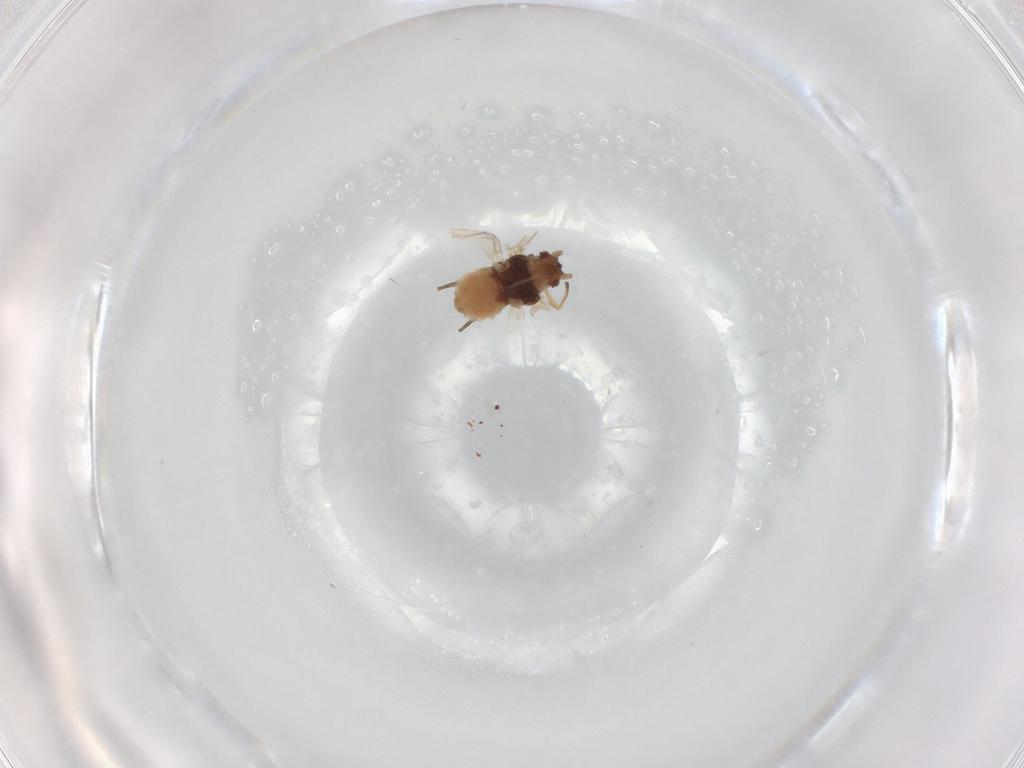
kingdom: Animalia
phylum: Arthropoda
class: Insecta
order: Hemiptera
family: Aphididae
